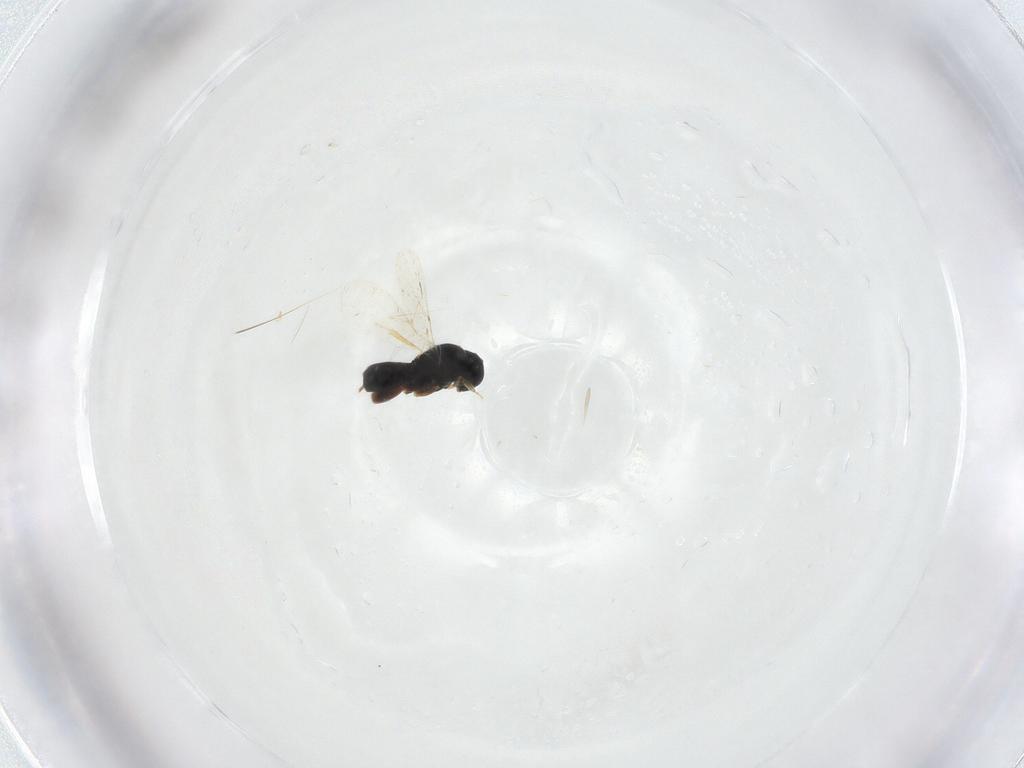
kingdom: Animalia
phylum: Arthropoda
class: Insecta
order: Hymenoptera
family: Scelionidae
